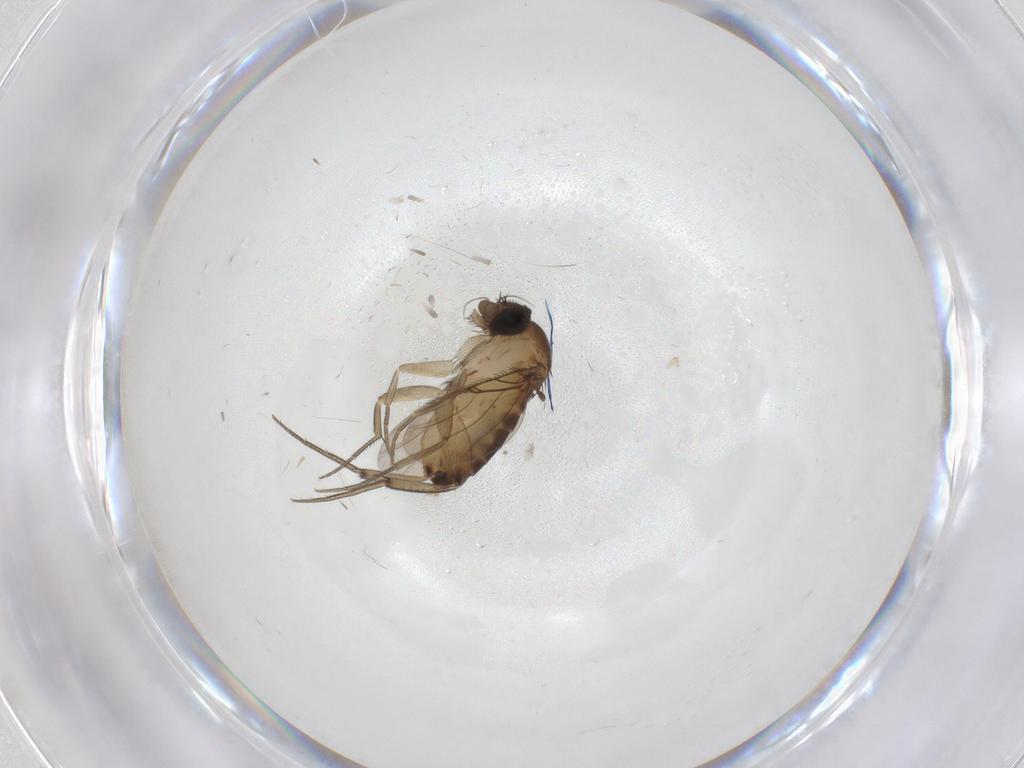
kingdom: Animalia
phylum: Arthropoda
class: Insecta
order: Diptera
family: Phoridae
